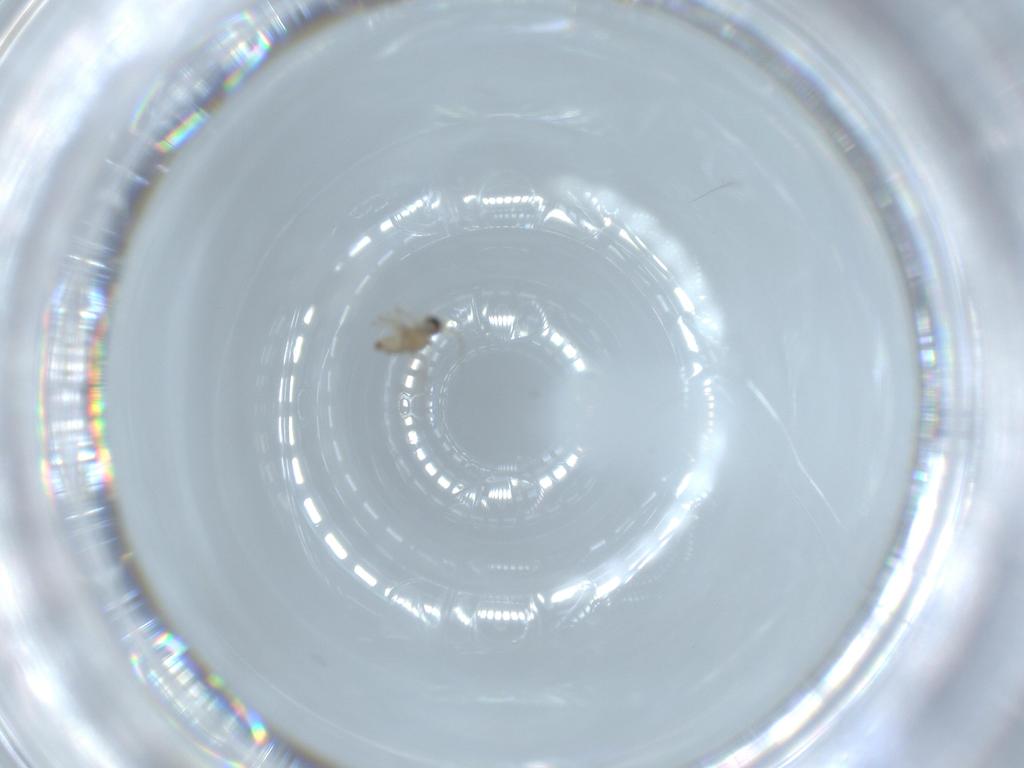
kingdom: Animalia
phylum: Arthropoda
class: Insecta
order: Diptera
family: Cecidomyiidae
